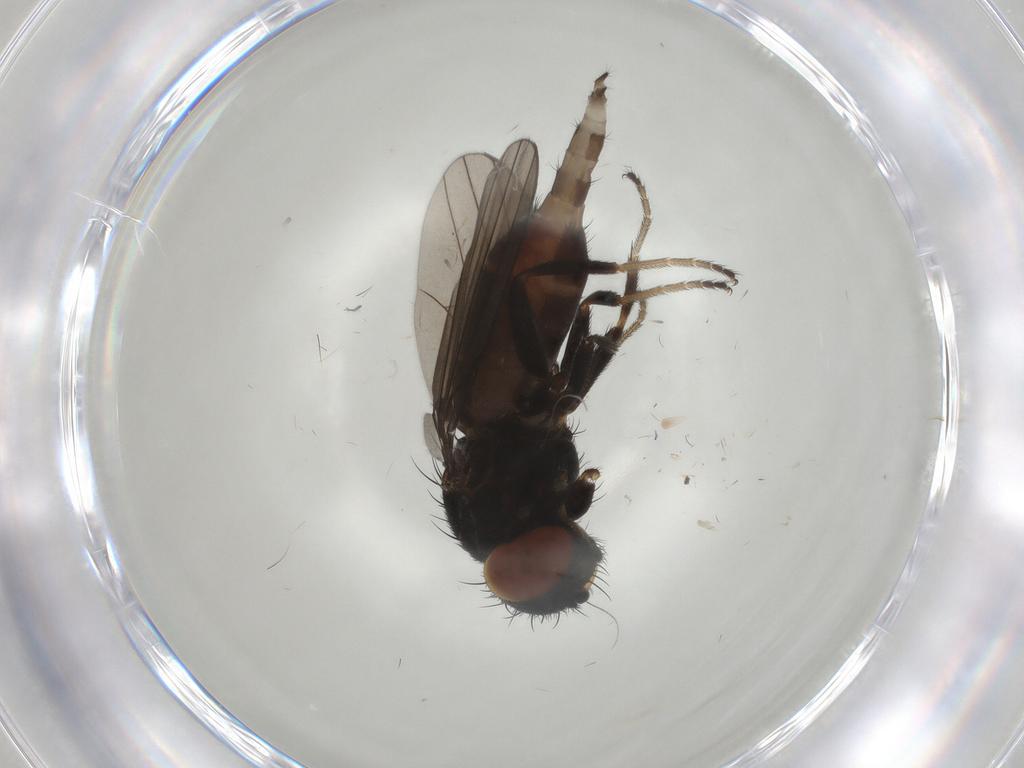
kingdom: Animalia
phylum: Arthropoda
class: Insecta
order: Diptera
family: Milichiidae
